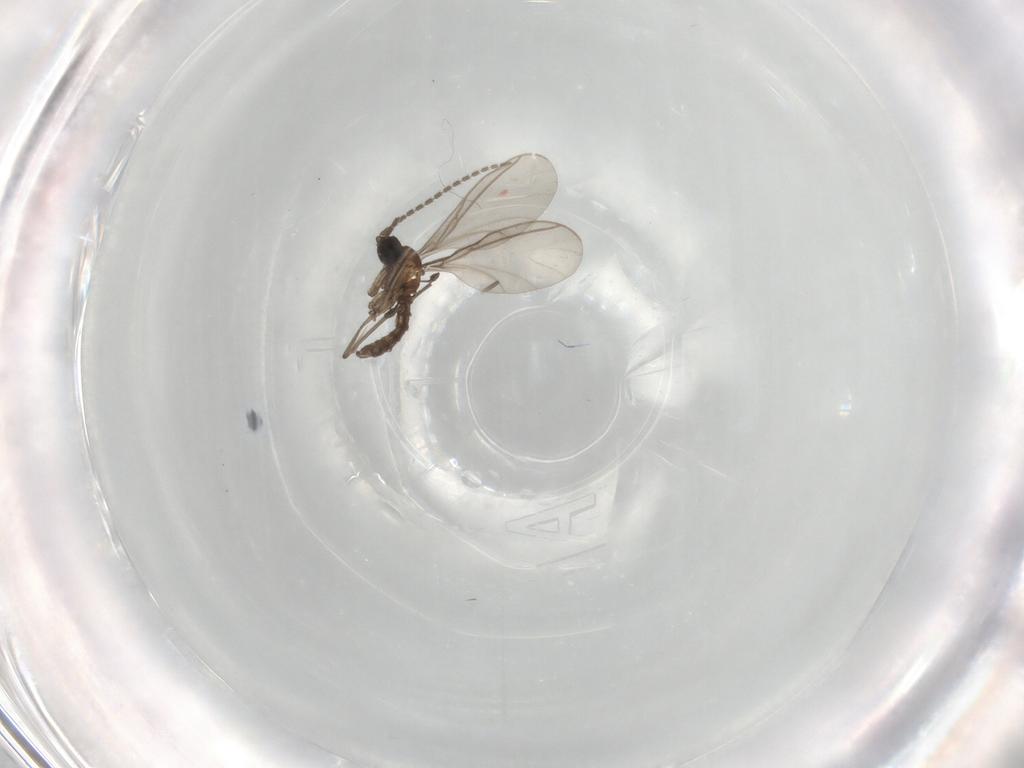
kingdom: Animalia
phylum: Arthropoda
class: Insecta
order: Diptera
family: Sciaridae
